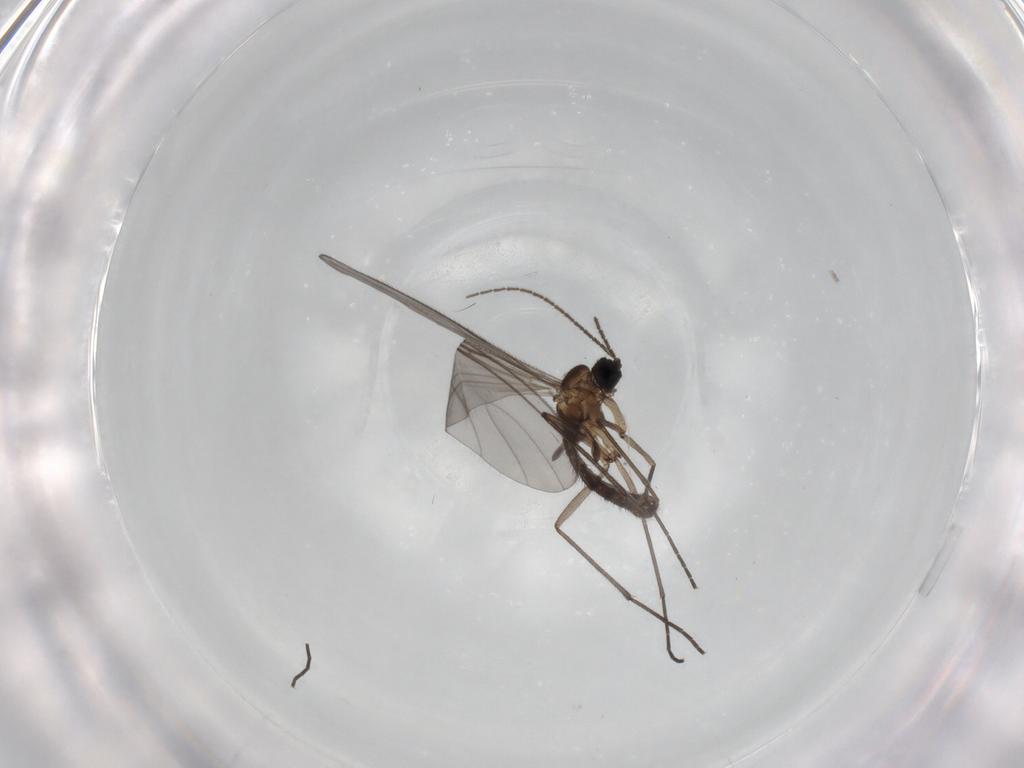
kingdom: Animalia
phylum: Arthropoda
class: Insecta
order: Diptera
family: Sciaridae
